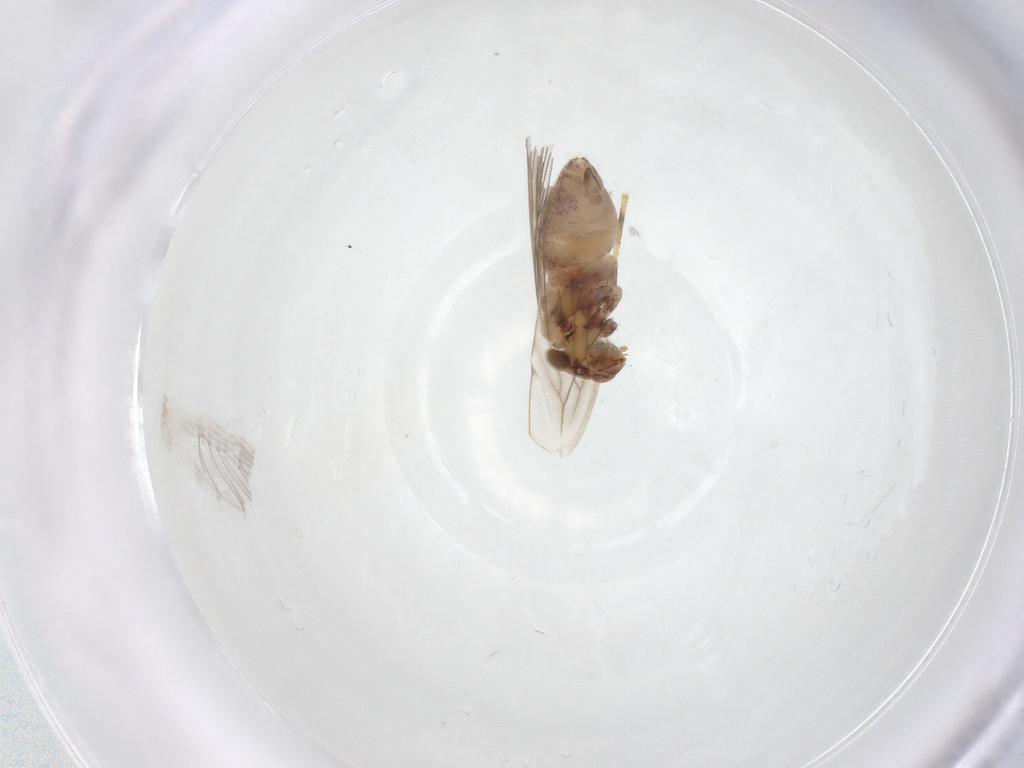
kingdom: Animalia
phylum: Arthropoda
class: Insecta
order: Psocodea
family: Lepidopsocidae
